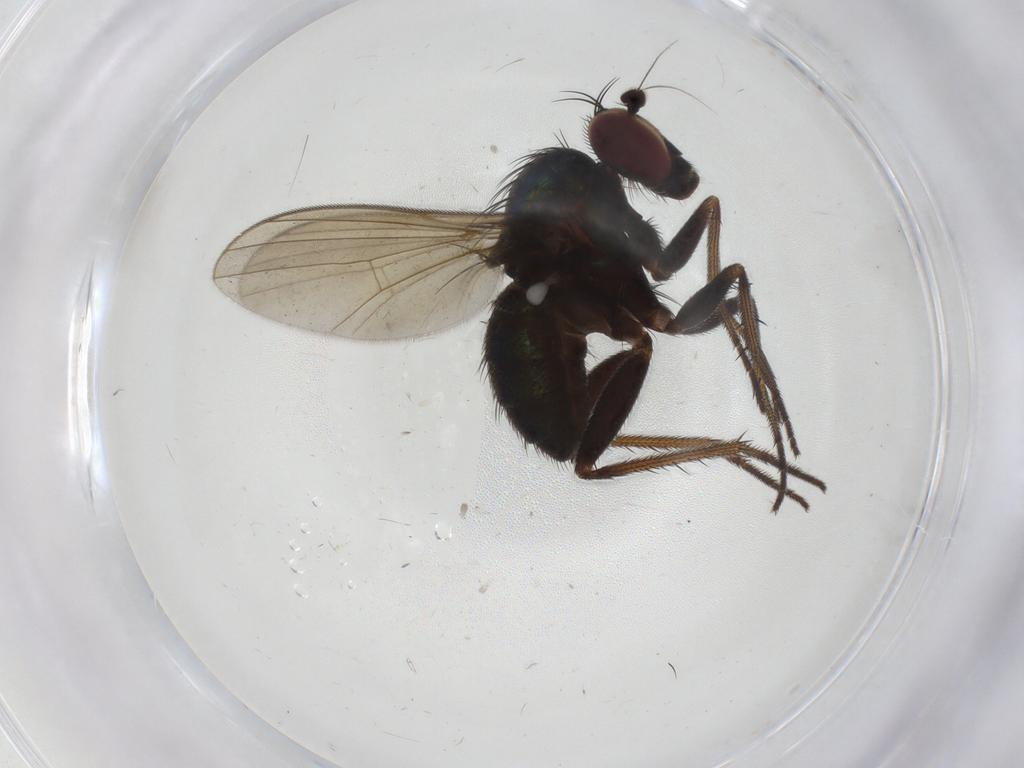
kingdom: Animalia
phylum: Arthropoda
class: Insecta
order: Diptera
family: Dolichopodidae
